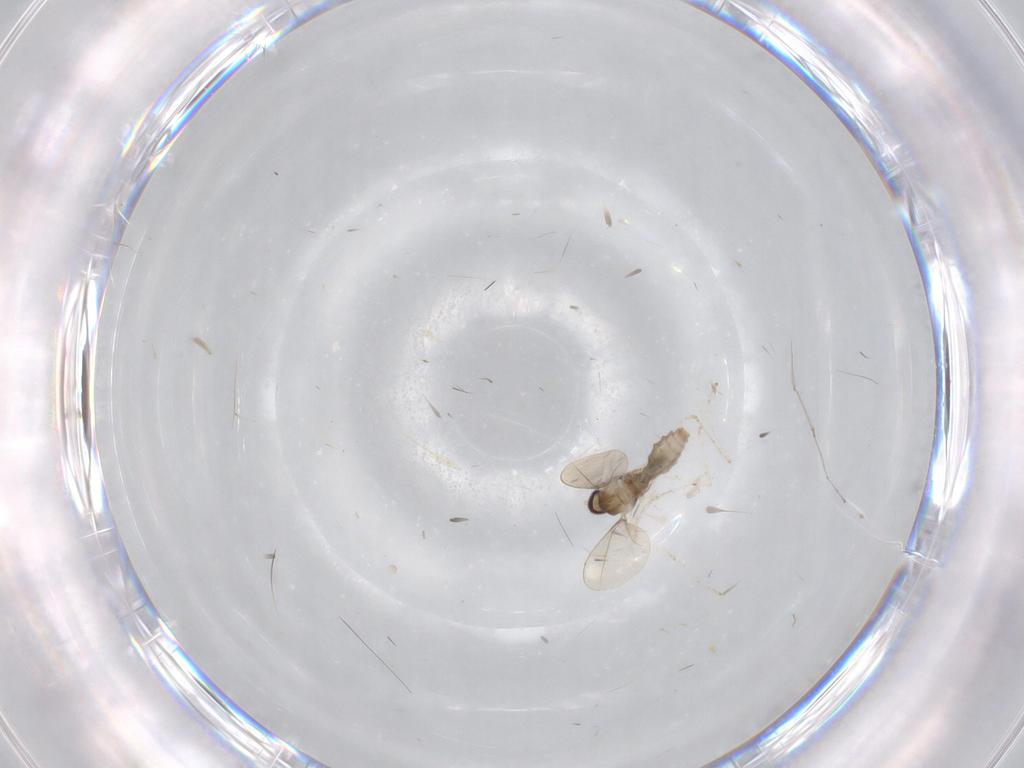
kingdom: Animalia
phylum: Arthropoda
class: Insecta
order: Diptera
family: Cecidomyiidae
